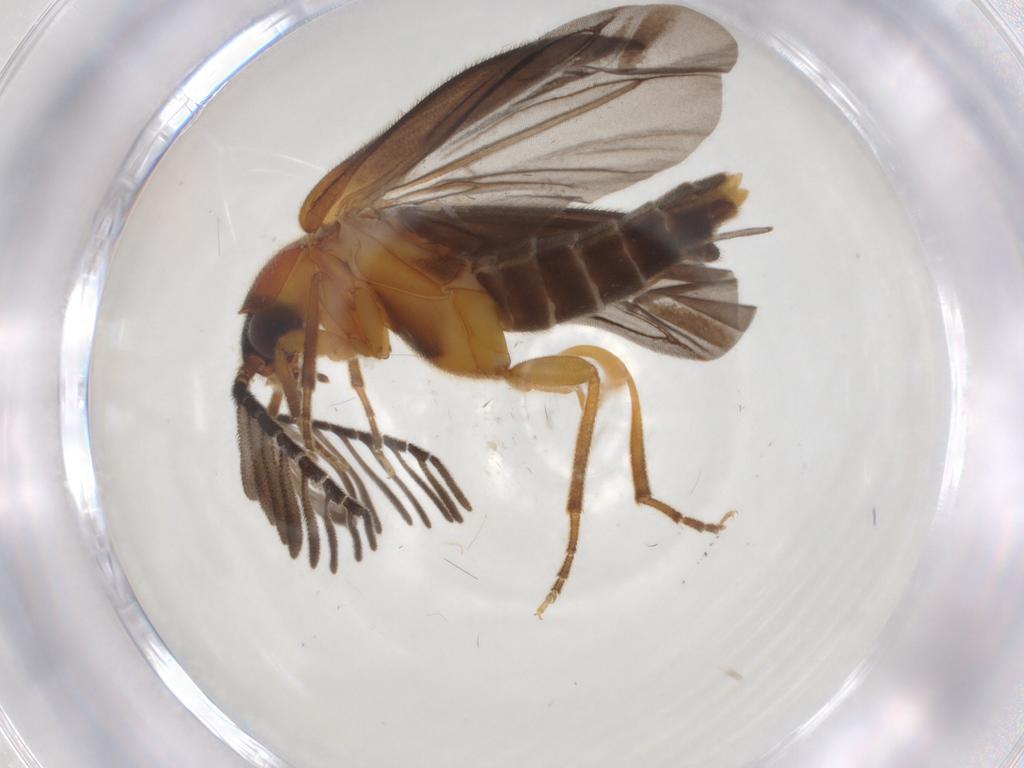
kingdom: Animalia
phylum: Arthropoda
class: Insecta
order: Coleoptera
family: Lampyridae
